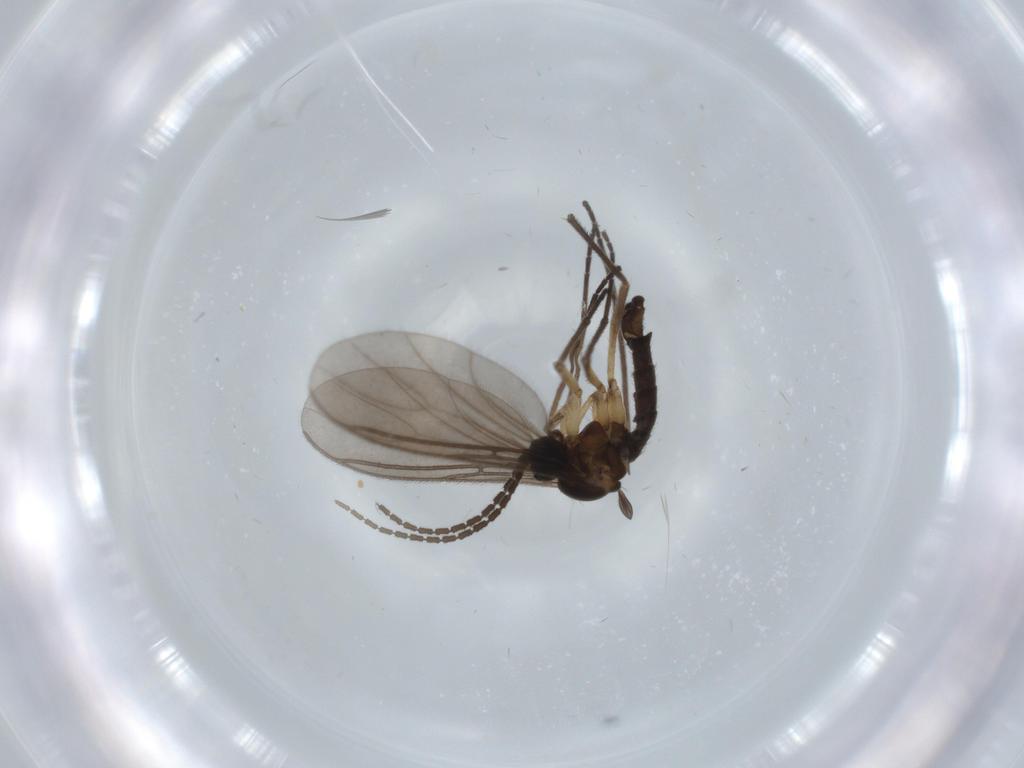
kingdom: Animalia
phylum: Arthropoda
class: Insecta
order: Diptera
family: Sciaridae
